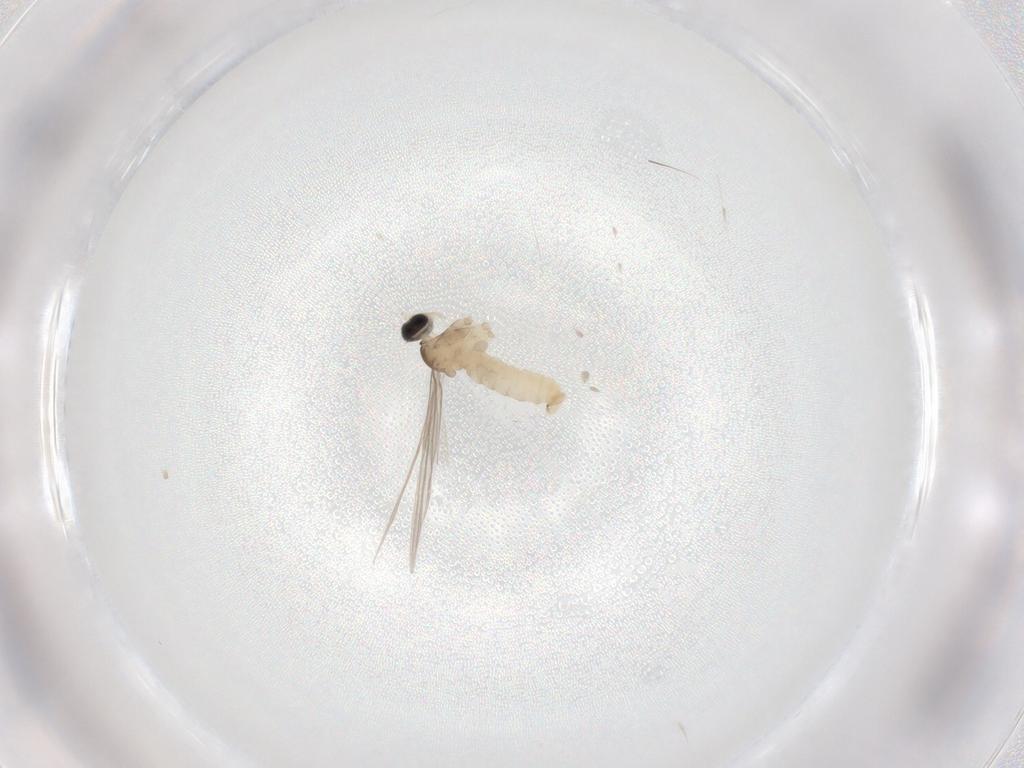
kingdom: Animalia
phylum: Arthropoda
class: Insecta
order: Diptera
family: Cecidomyiidae
